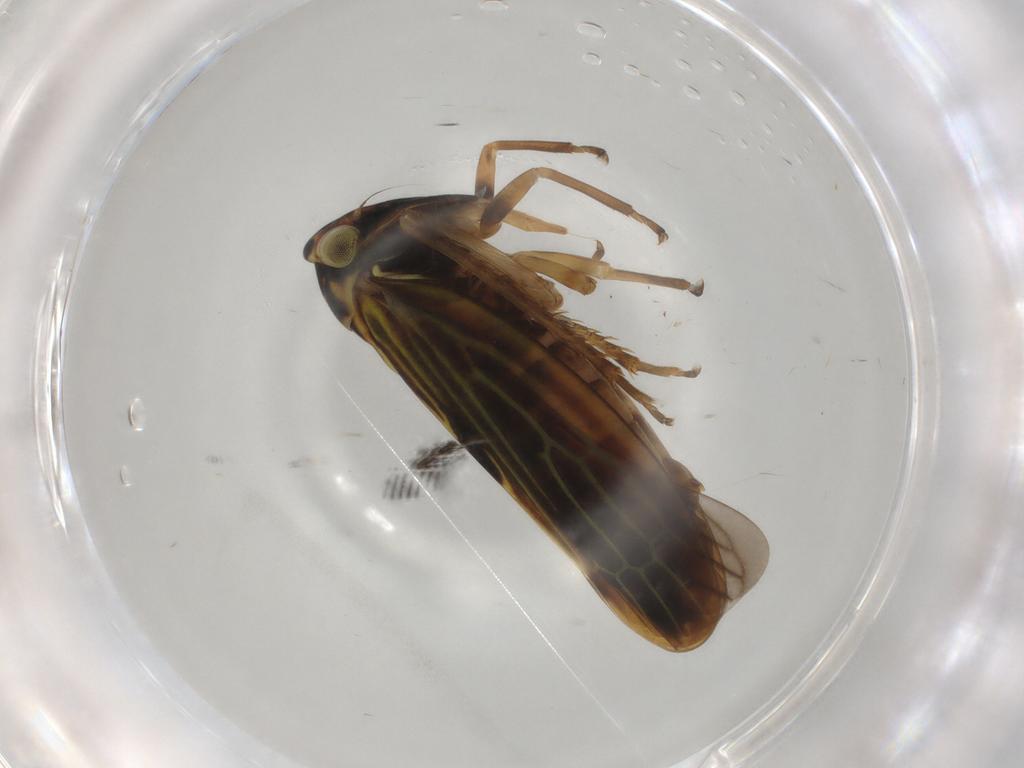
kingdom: Animalia
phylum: Arthropoda
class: Insecta
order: Hemiptera
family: Cicadellidae
